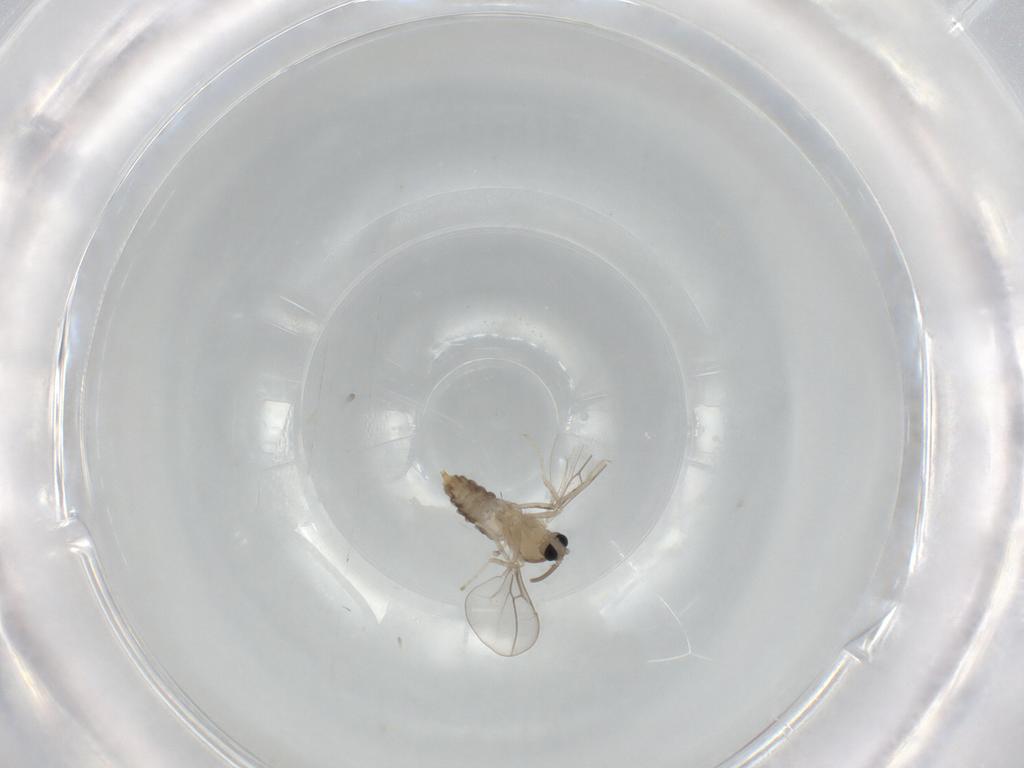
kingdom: Animalia
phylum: Arthropoda
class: Insecta
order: Diptera
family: Cecidomyiidae
